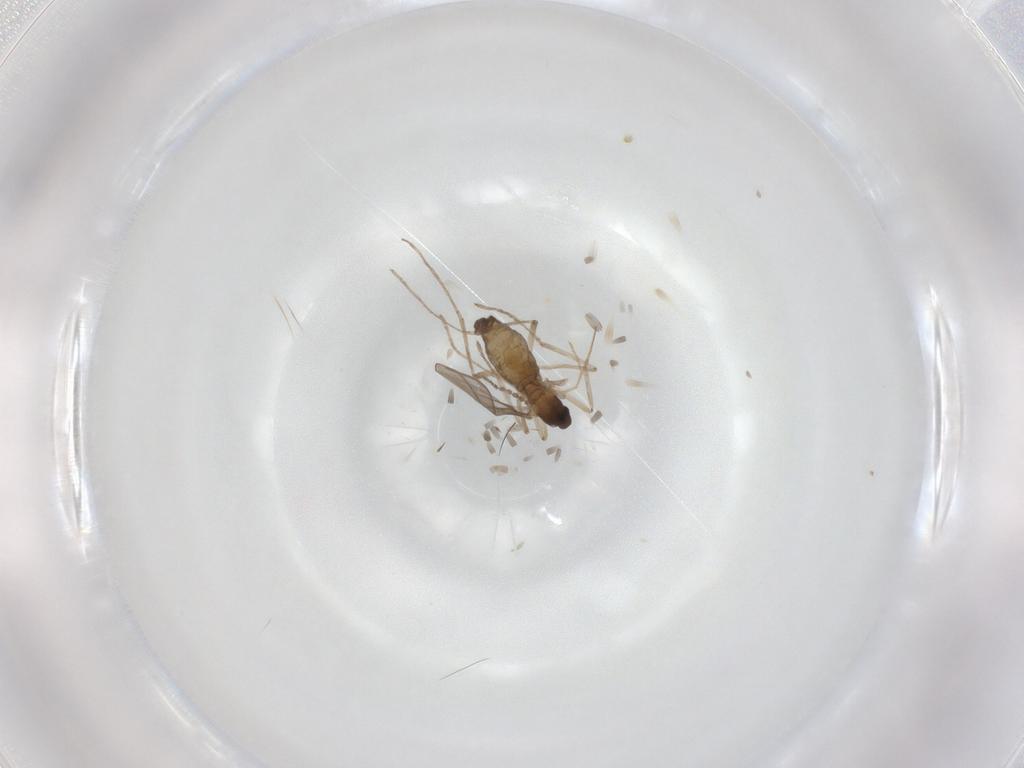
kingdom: Animalia
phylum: Arthropoda
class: Insecta
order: Diptera
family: Cecidomyiidae
